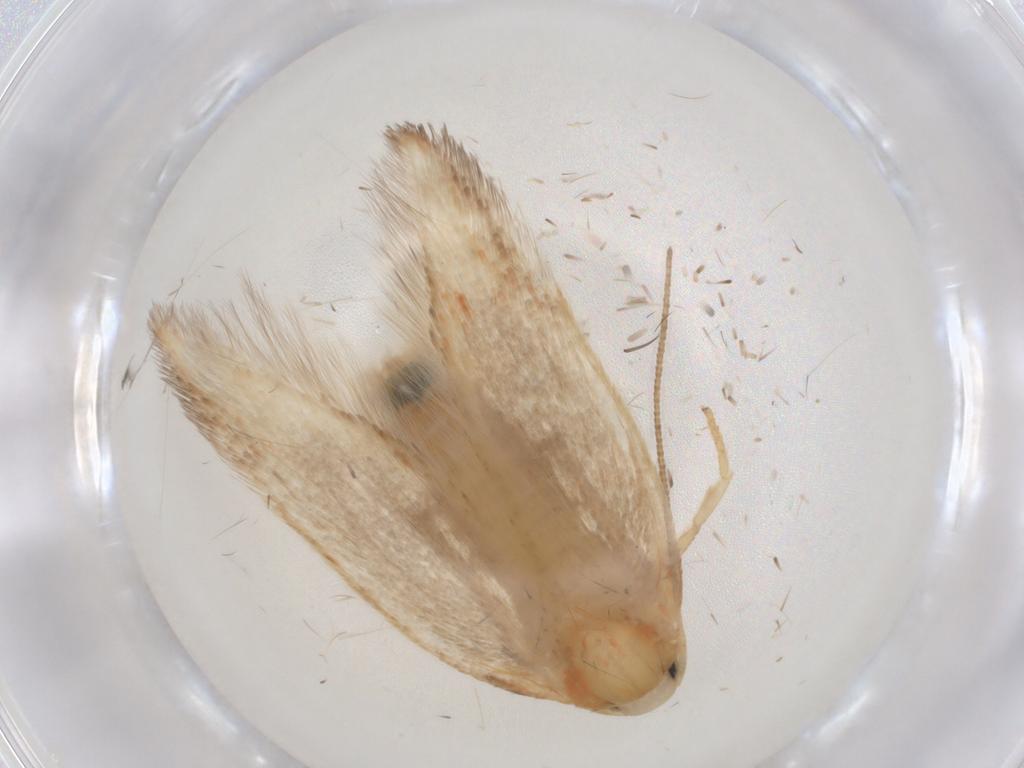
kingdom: Animalia
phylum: Arthropoda
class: Insecta
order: Lepidoptera
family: Geometridae
